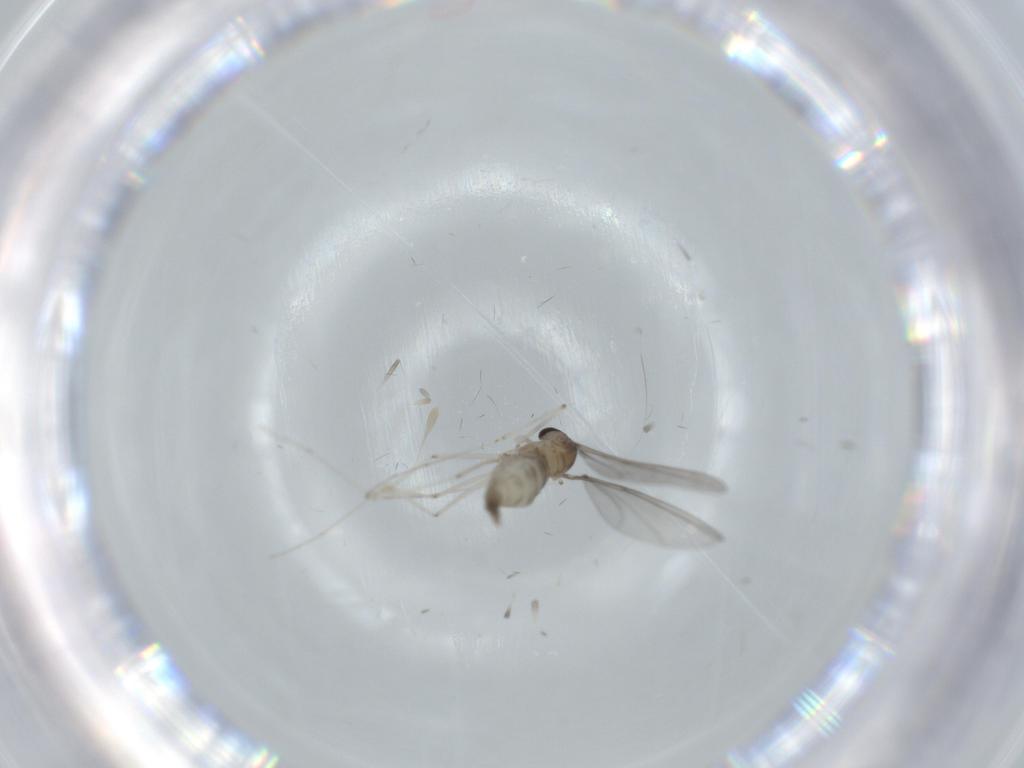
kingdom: Animalia
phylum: Arthropoda
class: Insecta
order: Diptera
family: Cecidomyiidae
